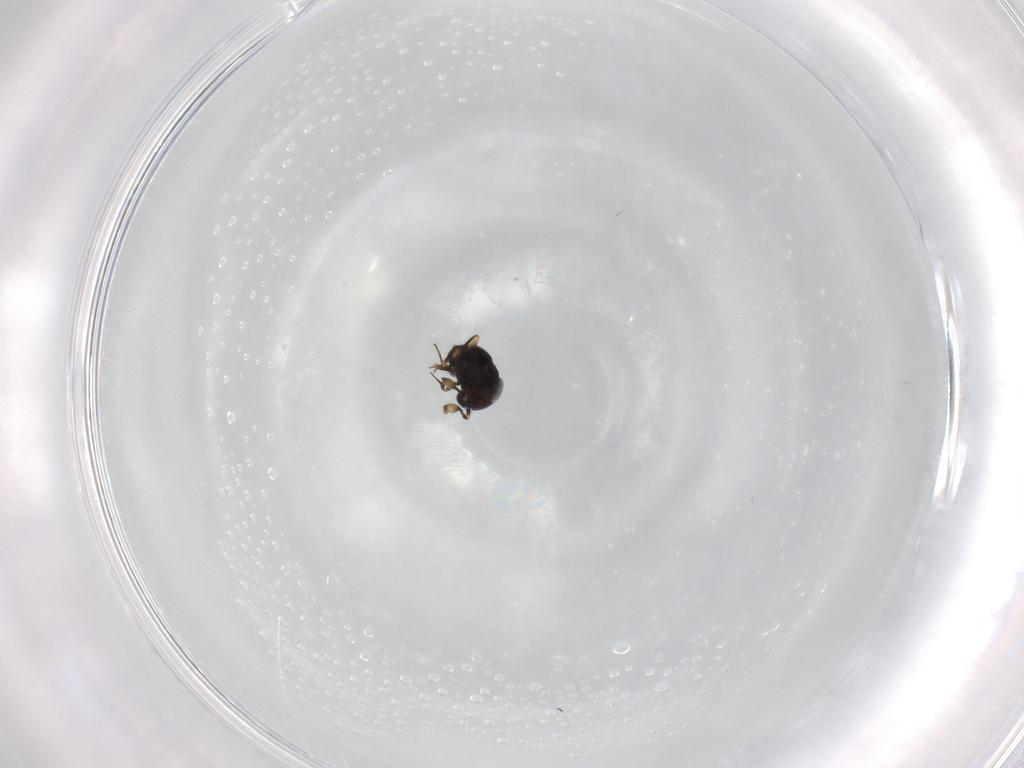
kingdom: Animalia
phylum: Arthropoda
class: Insecta
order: Hymenoptera
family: Scelionidae
